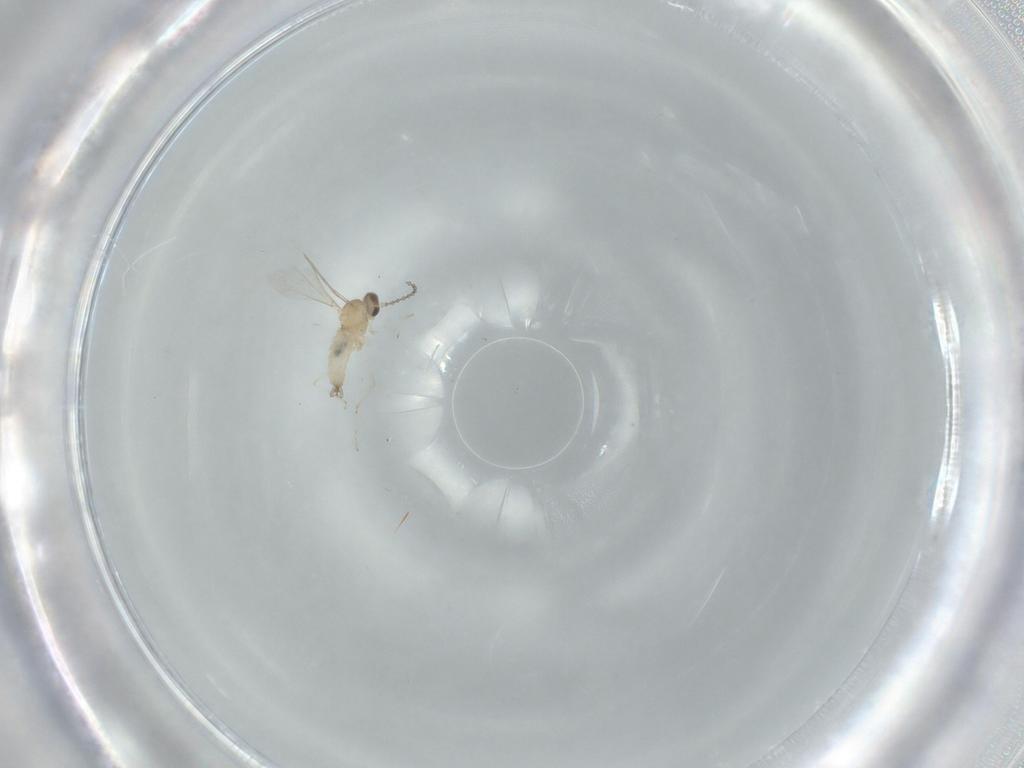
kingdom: Animalia
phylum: Arthropoda
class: Insecta
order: Diptera
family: Cecidomyiidae
